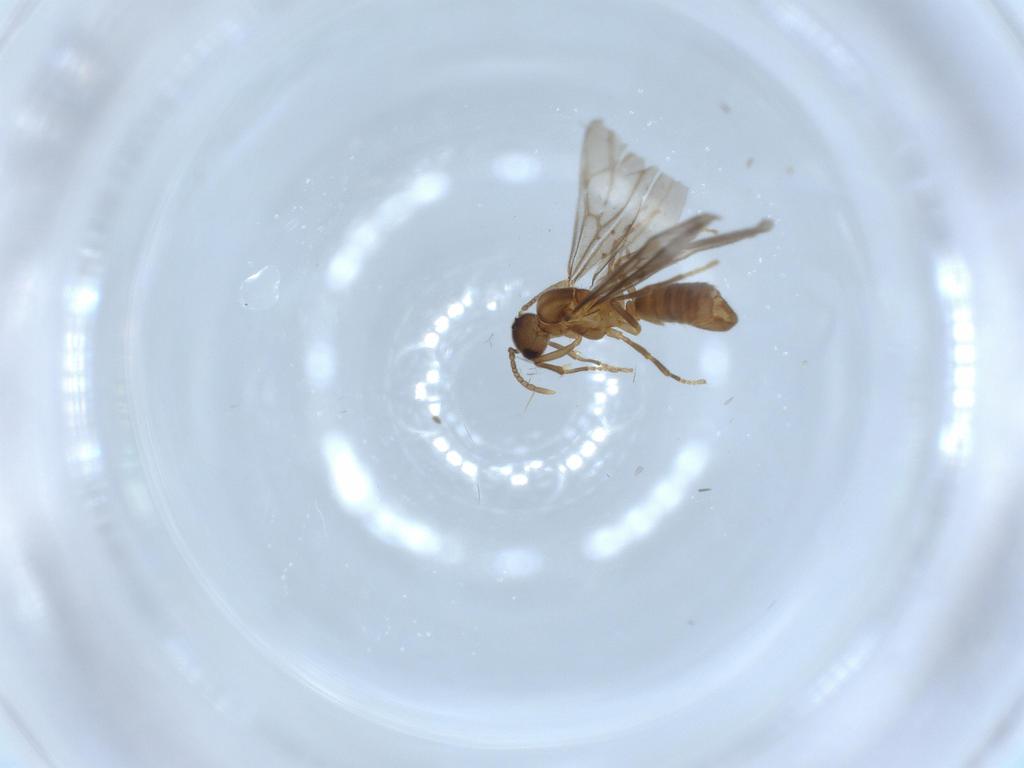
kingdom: Animalia
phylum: Arthropoda
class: Insecta
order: Hymenoptera
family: Formicidae
